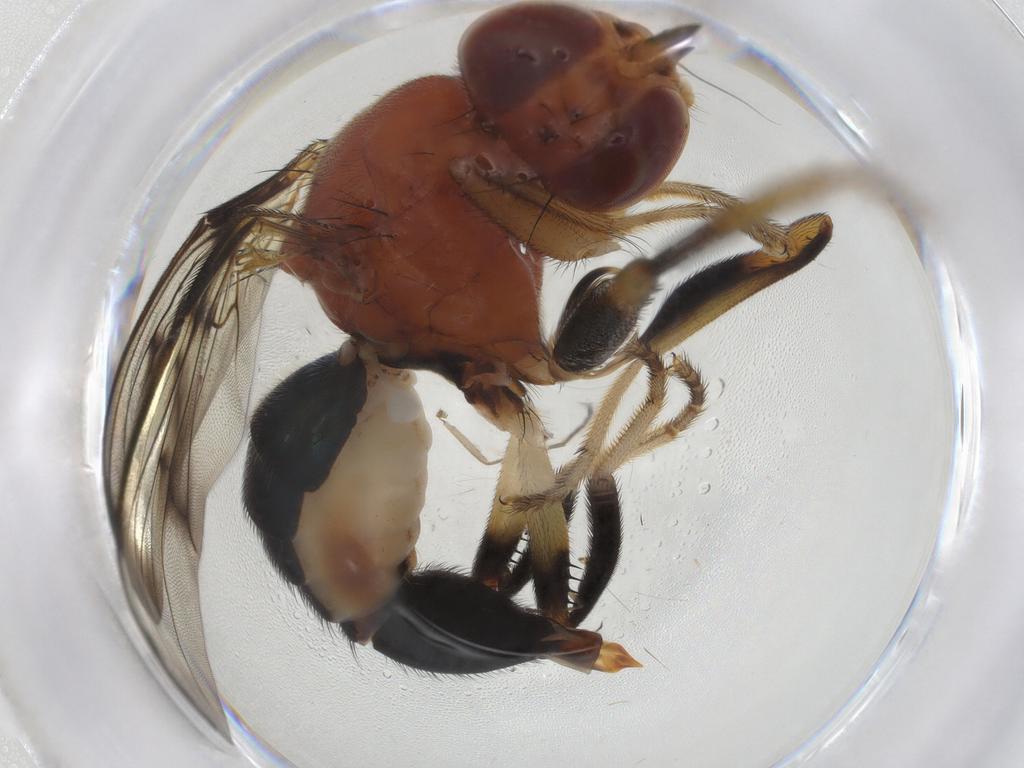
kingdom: Animalia
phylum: Arthropoda
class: Insecta
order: Diptera
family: Richardiidae
